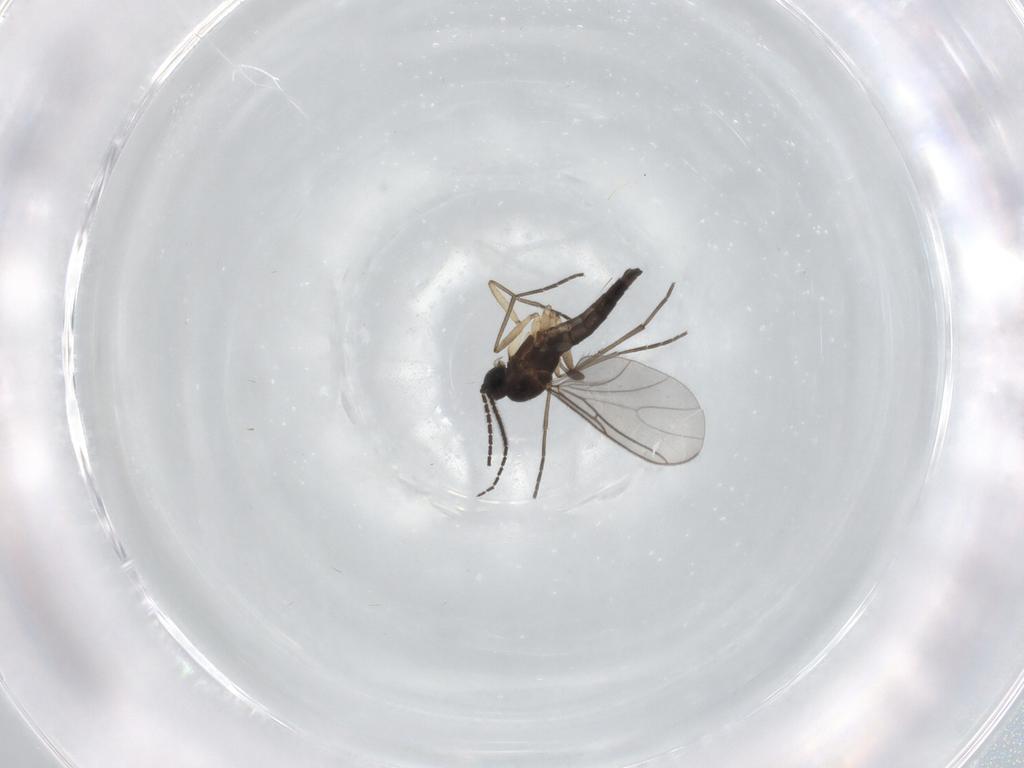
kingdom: Animalia
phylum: Arthropoda
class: Insecta
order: Diptera
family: Sciaridae
